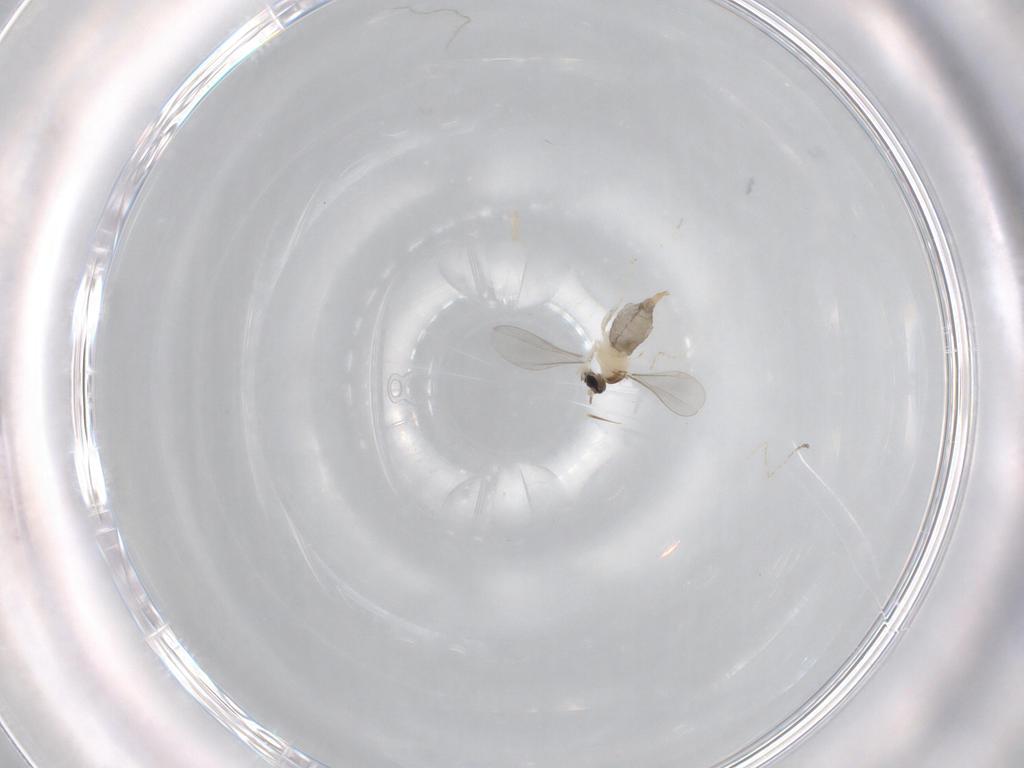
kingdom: Animalia
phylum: Arthropoda
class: Insecta
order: Diptera
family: Cecidomyiidae
